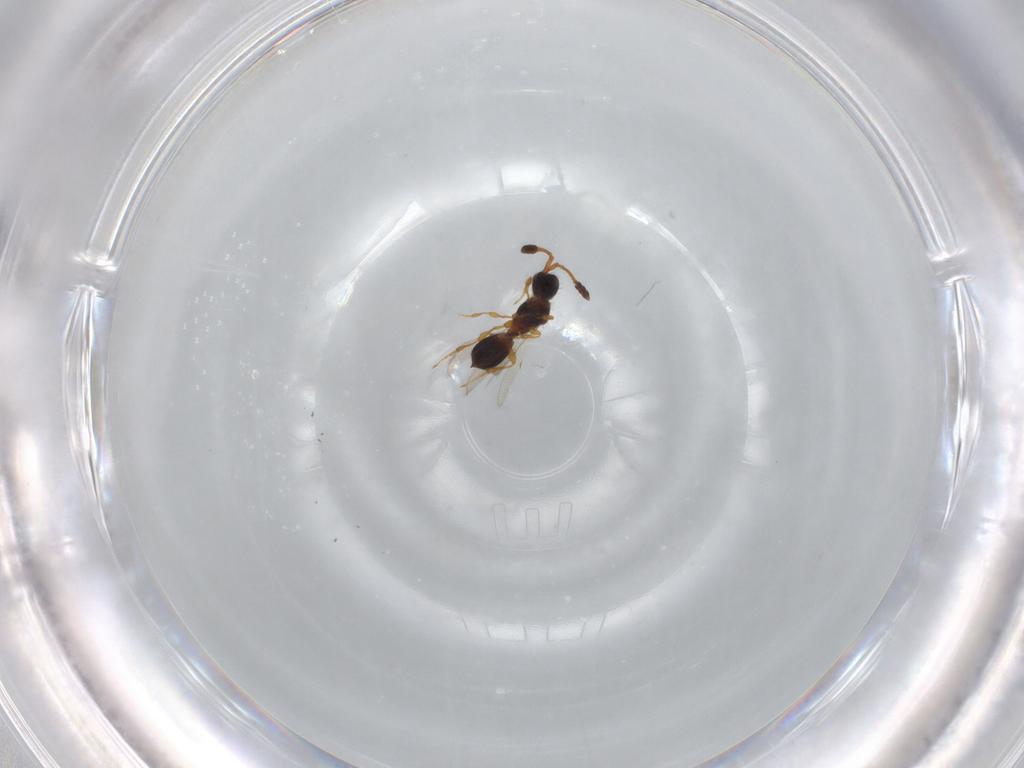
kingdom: Animalia
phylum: Arthropoda
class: Insecta
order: Hymenoptera
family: Diapriidae
